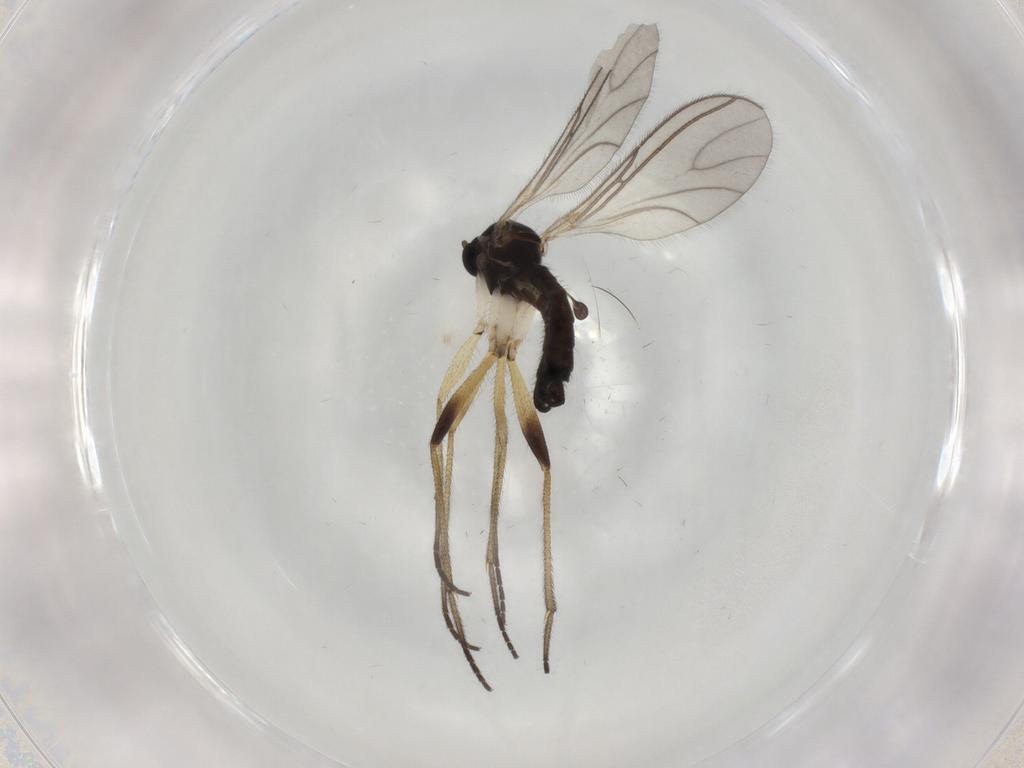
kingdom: Animalia
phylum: Arthropoda
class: Insecta
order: Diptera
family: Sciaridae
